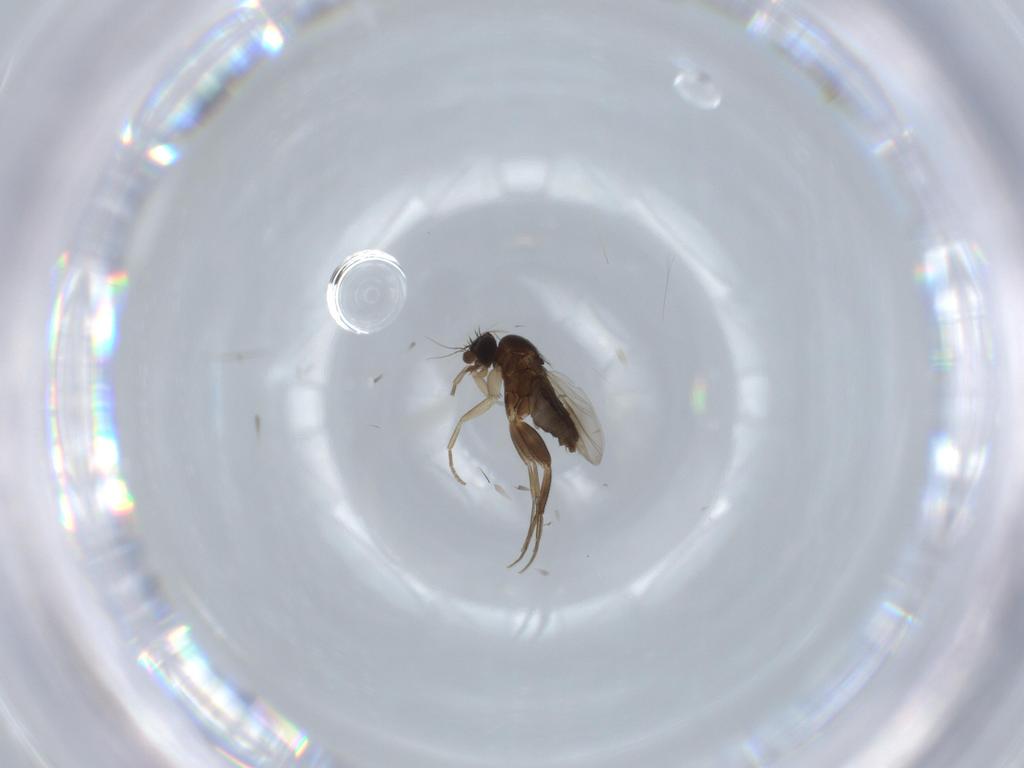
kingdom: Animalia
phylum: Arthropoda
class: Insecta
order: Diptera
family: Phoridae
